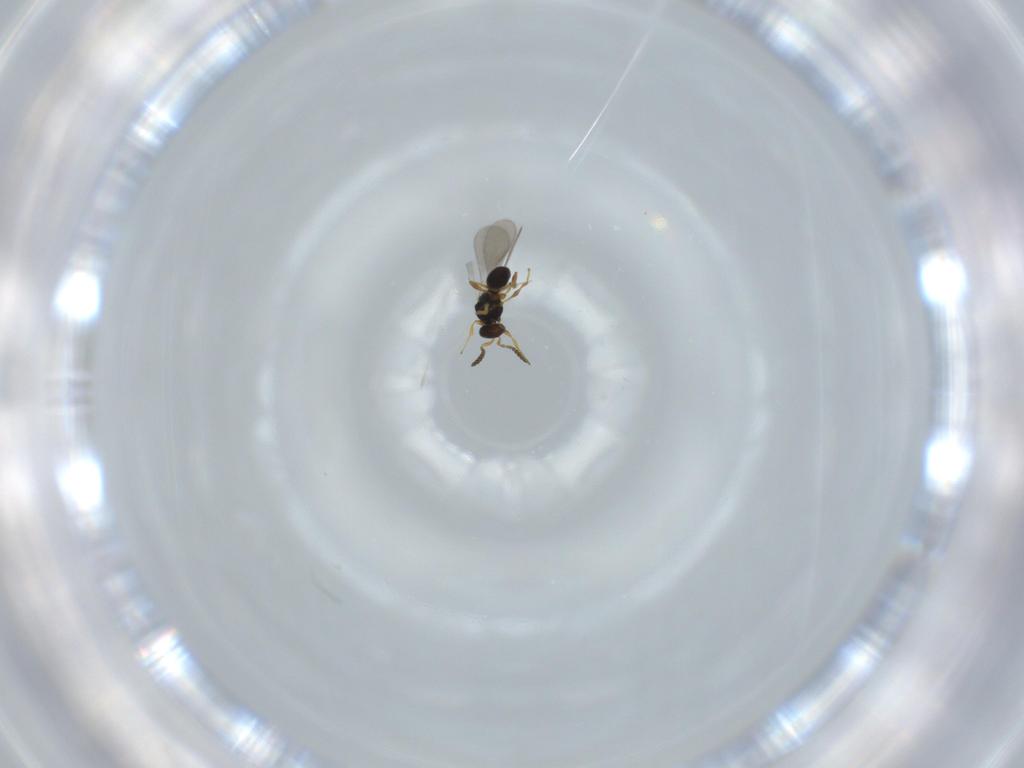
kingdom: Animalia
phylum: Arthropoda
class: Insecta
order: Hymenoptera
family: Platygastridae
